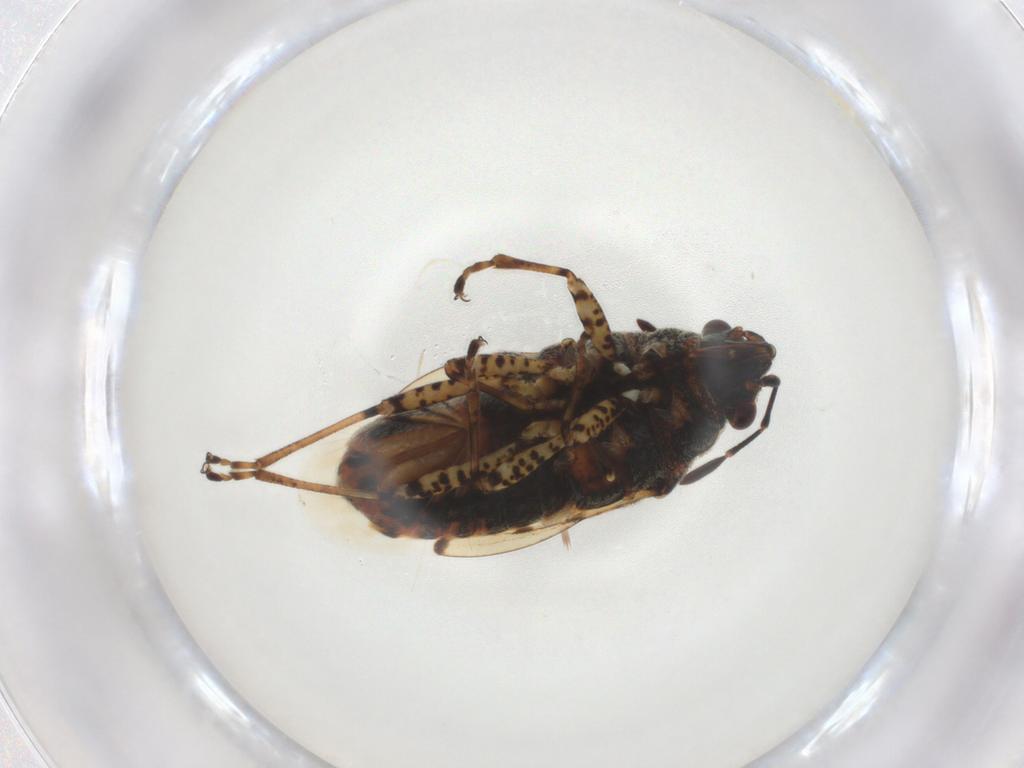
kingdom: Animalia
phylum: Arthropoda
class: Insecta
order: Hemiptera
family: Lygaeidae
